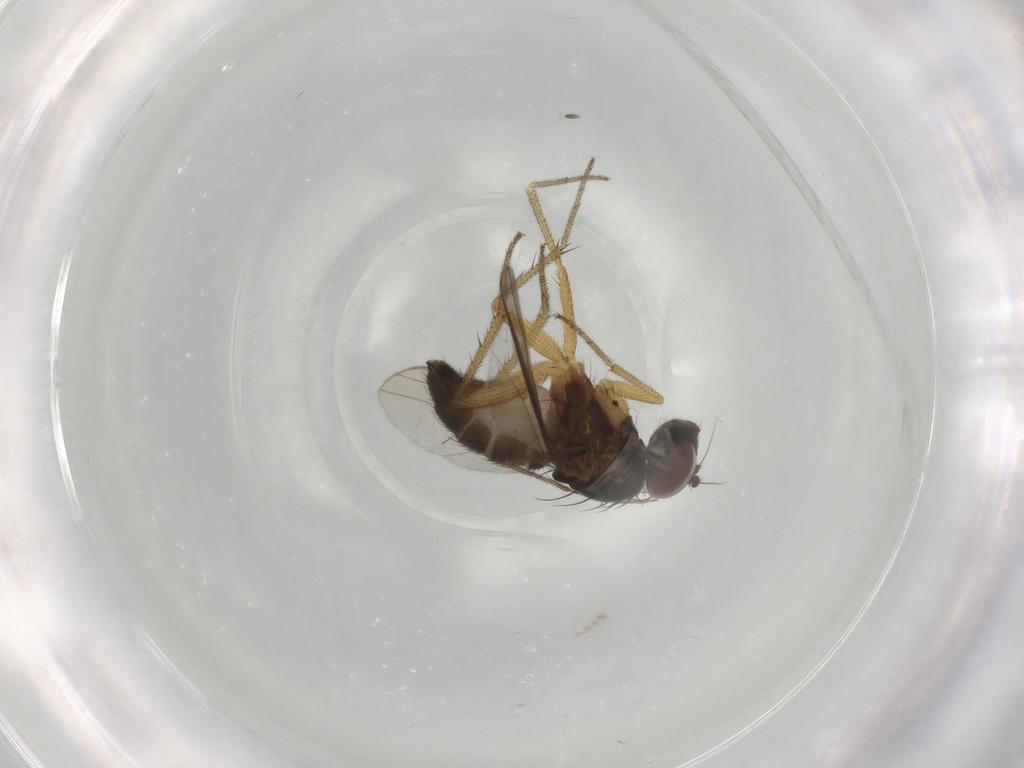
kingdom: Animalia
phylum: Arthropoda
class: Insecta
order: Diptera
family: Dolichopodidae
